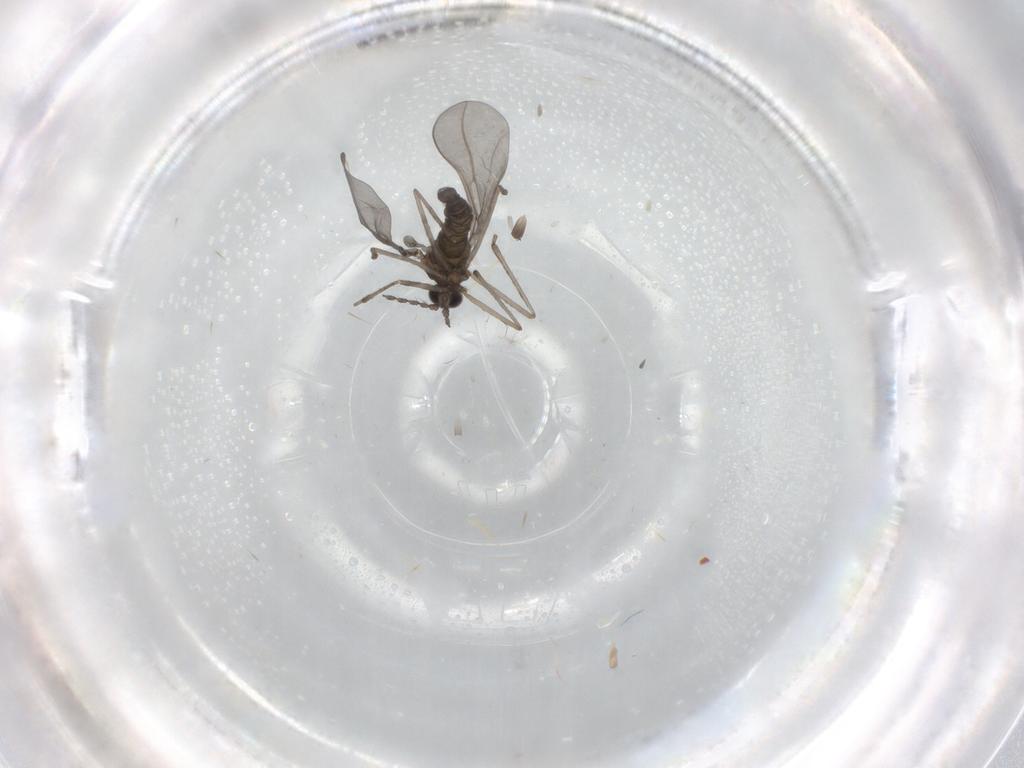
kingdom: Animalia
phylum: Arthropoda
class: Insecta
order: Diptera
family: Cecidomyiidae
